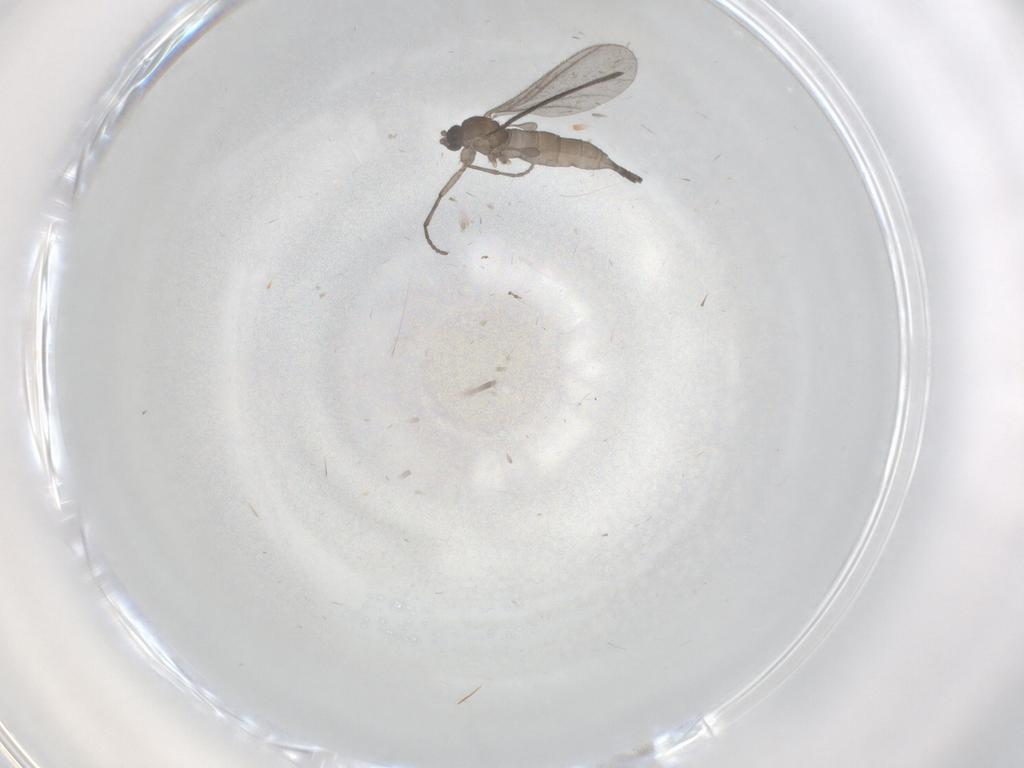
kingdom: Animalia
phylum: Arthropoda
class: Insecta
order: Diptera
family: Sciaridae
